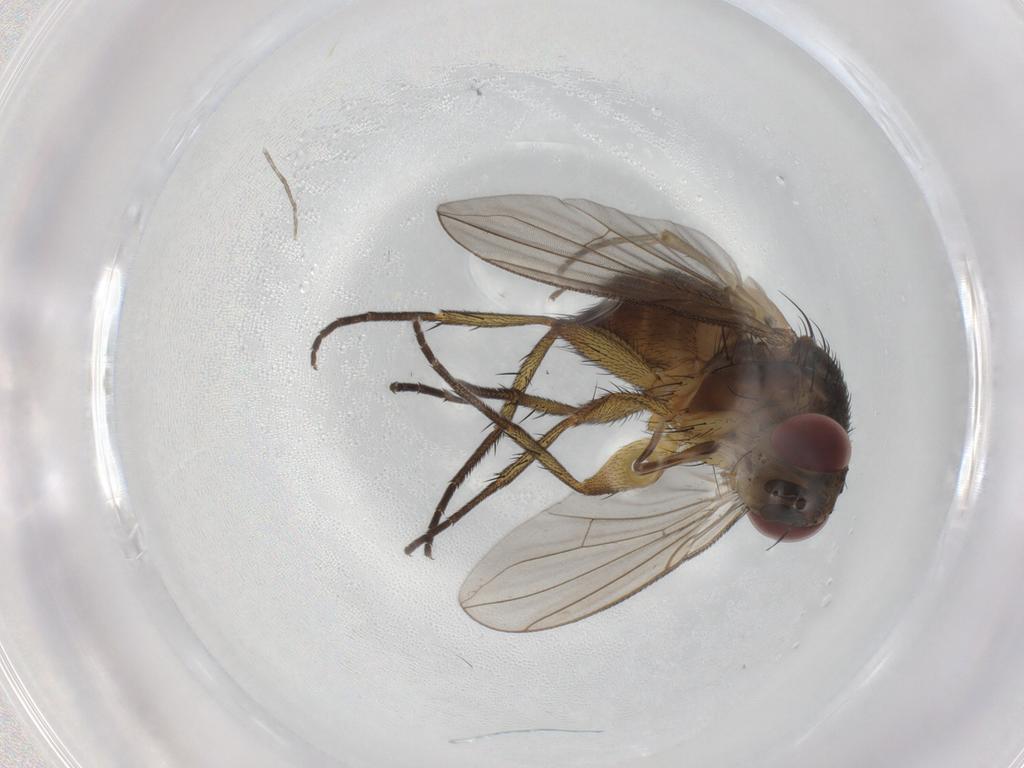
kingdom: Animalia
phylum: Arthropoda
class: Insecta
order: Diptera
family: Tachinidae
